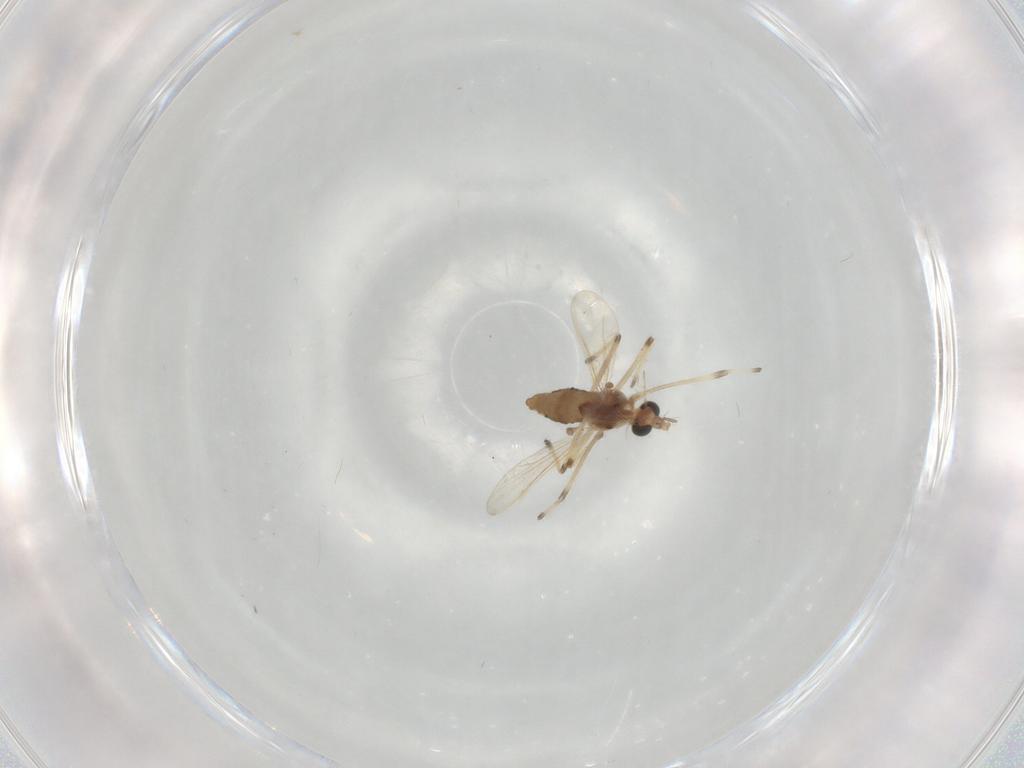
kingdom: Animalia
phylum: Arthropoda
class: Insecta
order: Diptera
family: Chironomidae
